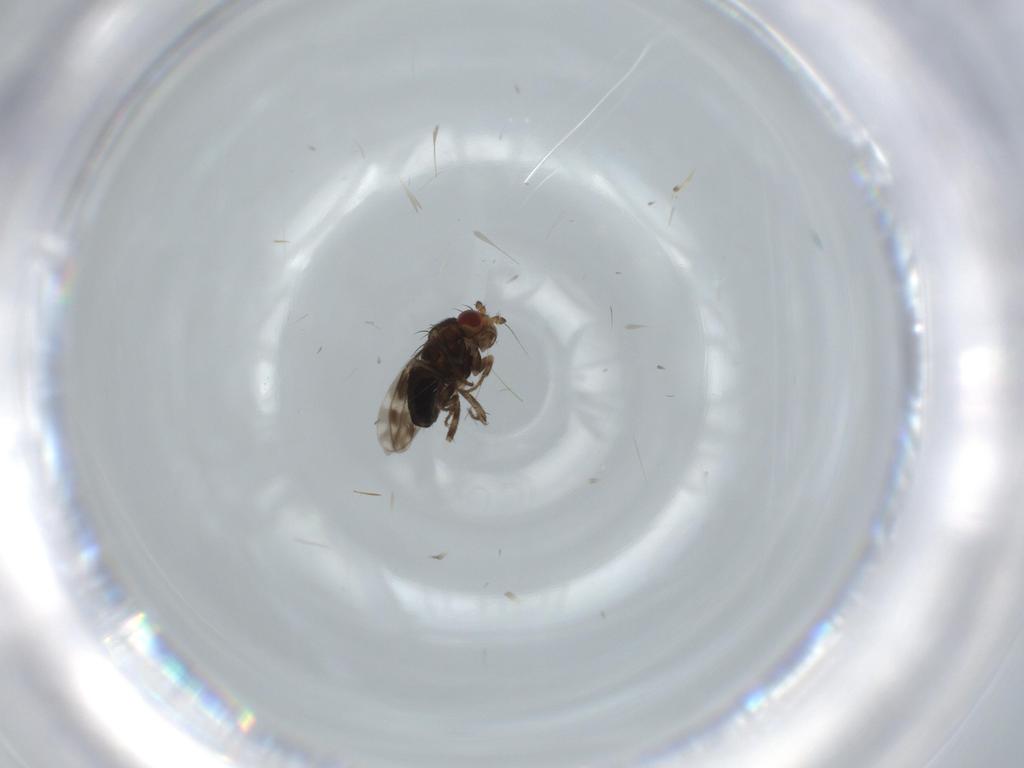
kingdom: Animalia
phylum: Arthropoda
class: Insecta
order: Diptera
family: Sphaeroceridae
